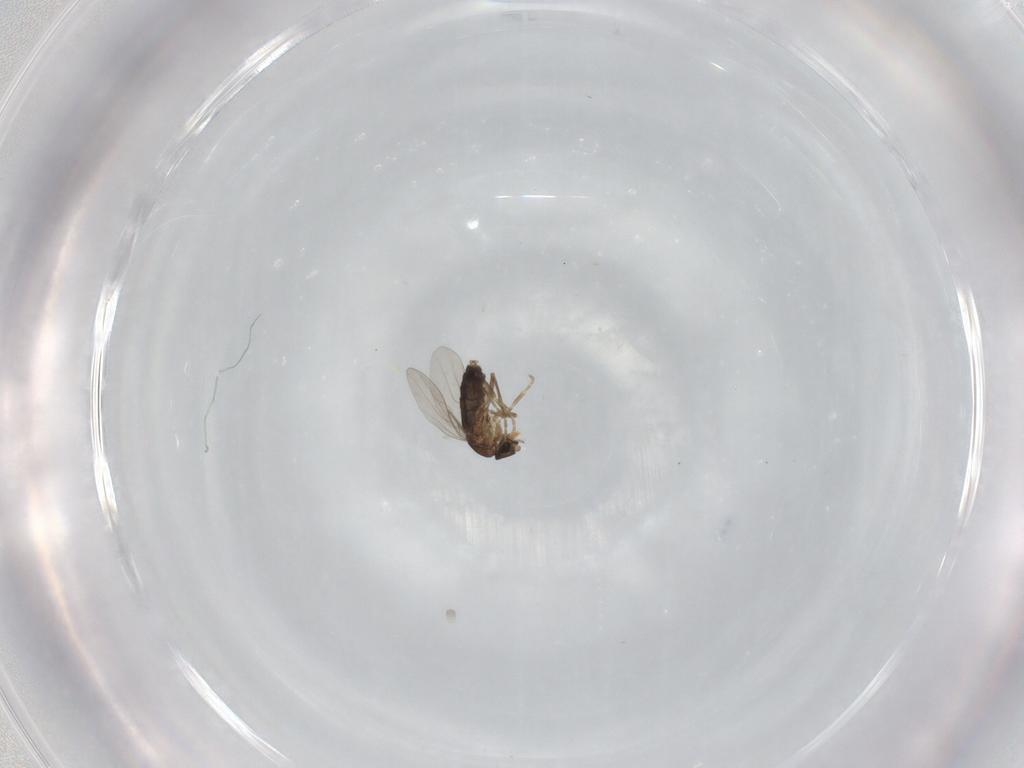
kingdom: Animalia
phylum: Arthropoda
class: Insecta
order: Diptera
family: Phoridae
